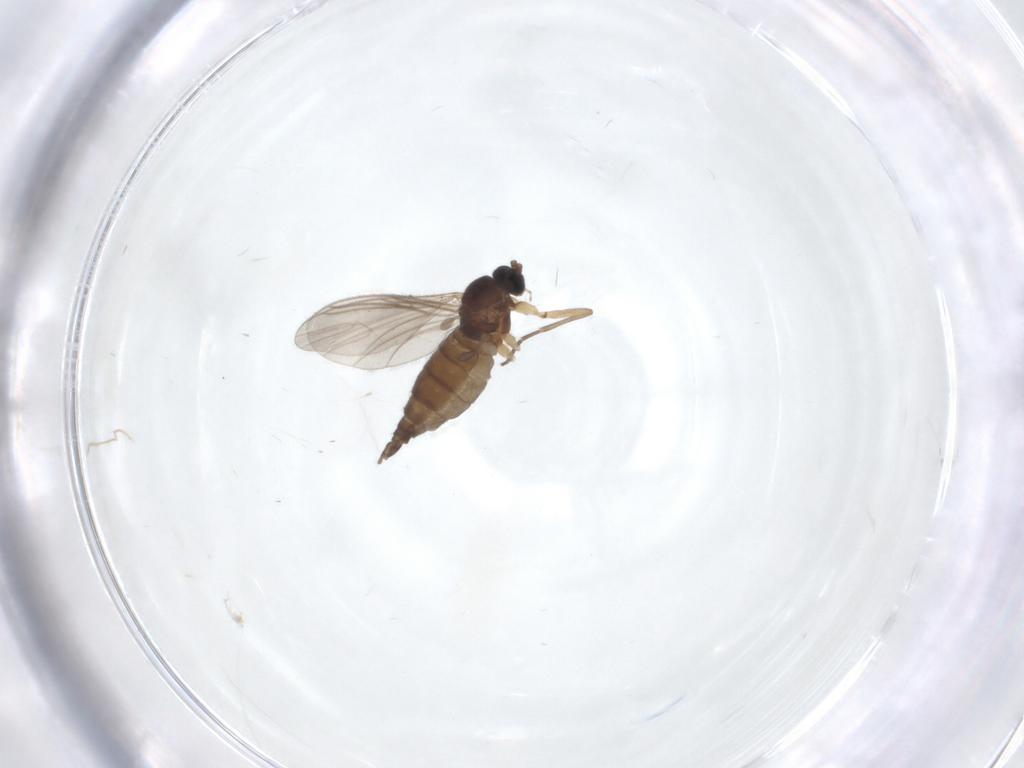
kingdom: Animalia
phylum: Arthropoda
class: Insecta
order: Diptera
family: Sciaridae
